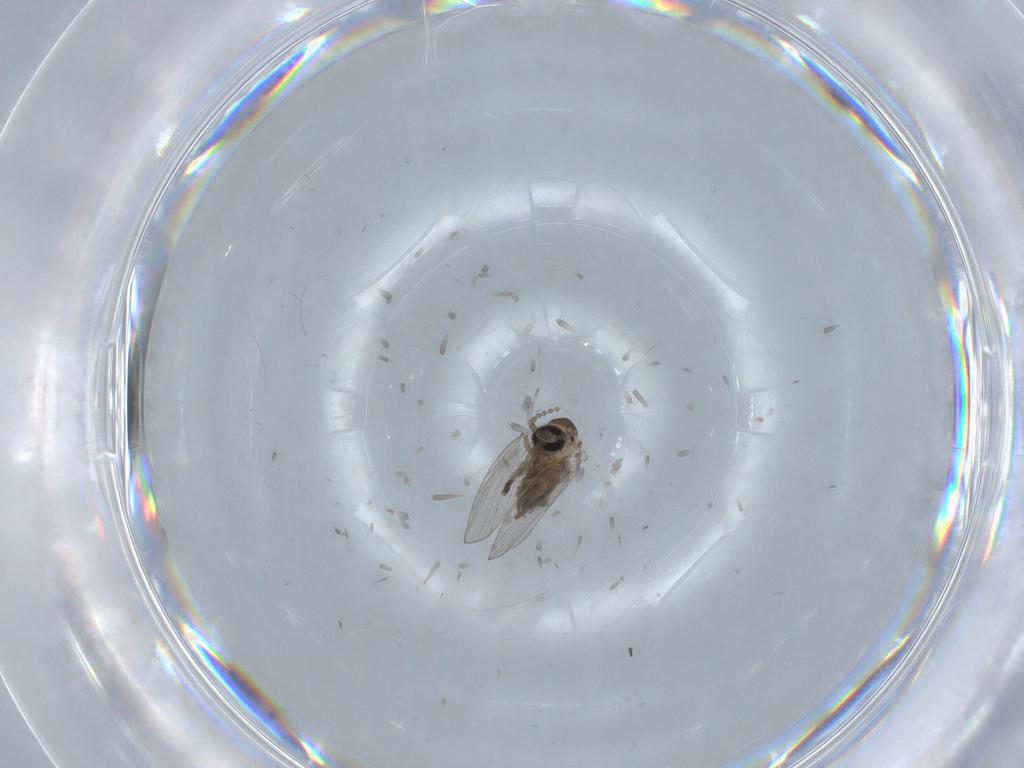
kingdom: Animalia
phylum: Arthropoda
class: Insecta
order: Diptera
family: Psychodidae
